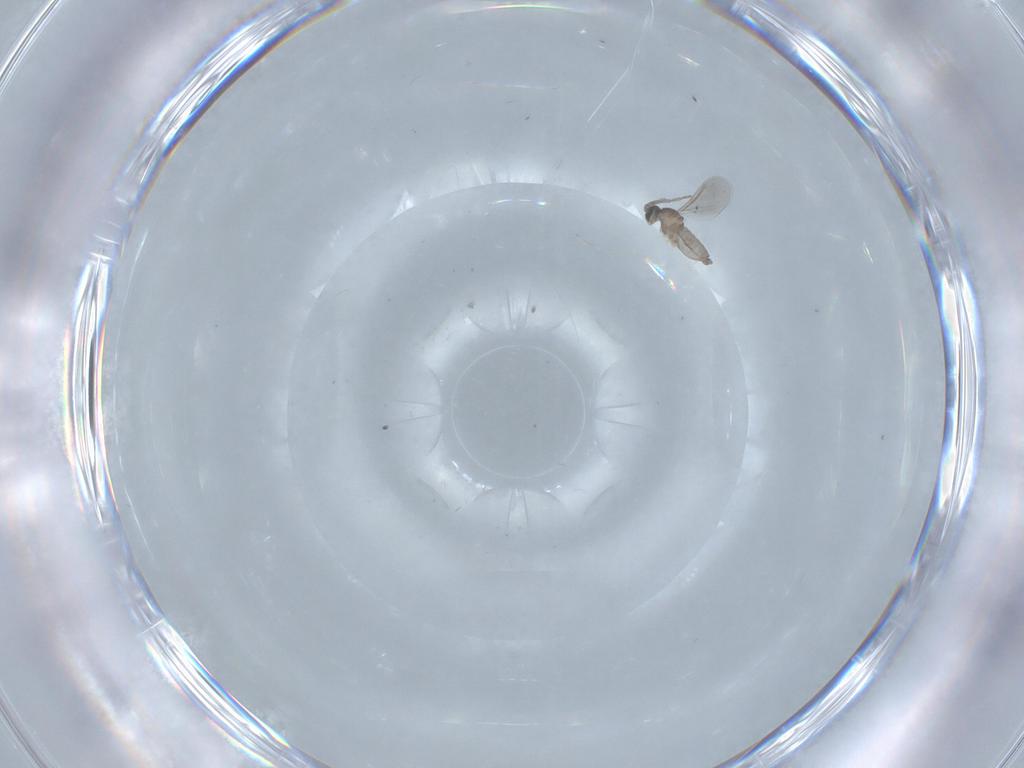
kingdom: Animalia
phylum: Arthropoda
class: Insecta
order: Diptera
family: Cecidomyiidae
